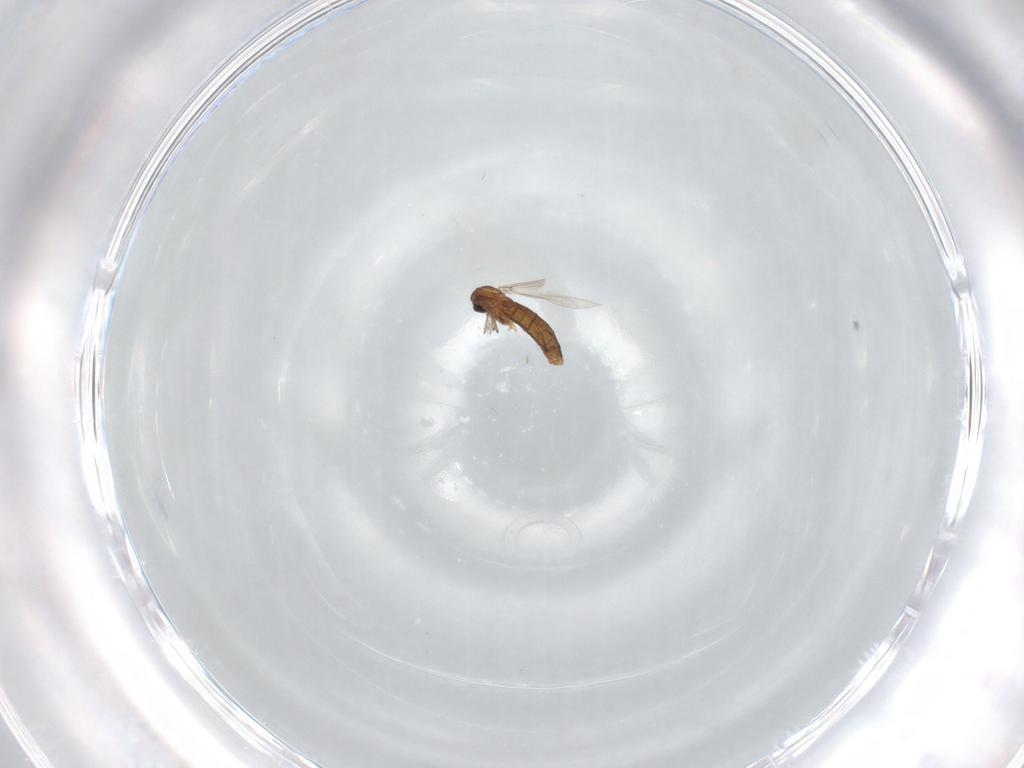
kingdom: Animalia
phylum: Arthropoda
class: Insecta
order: Diptera
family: Chironomidae
